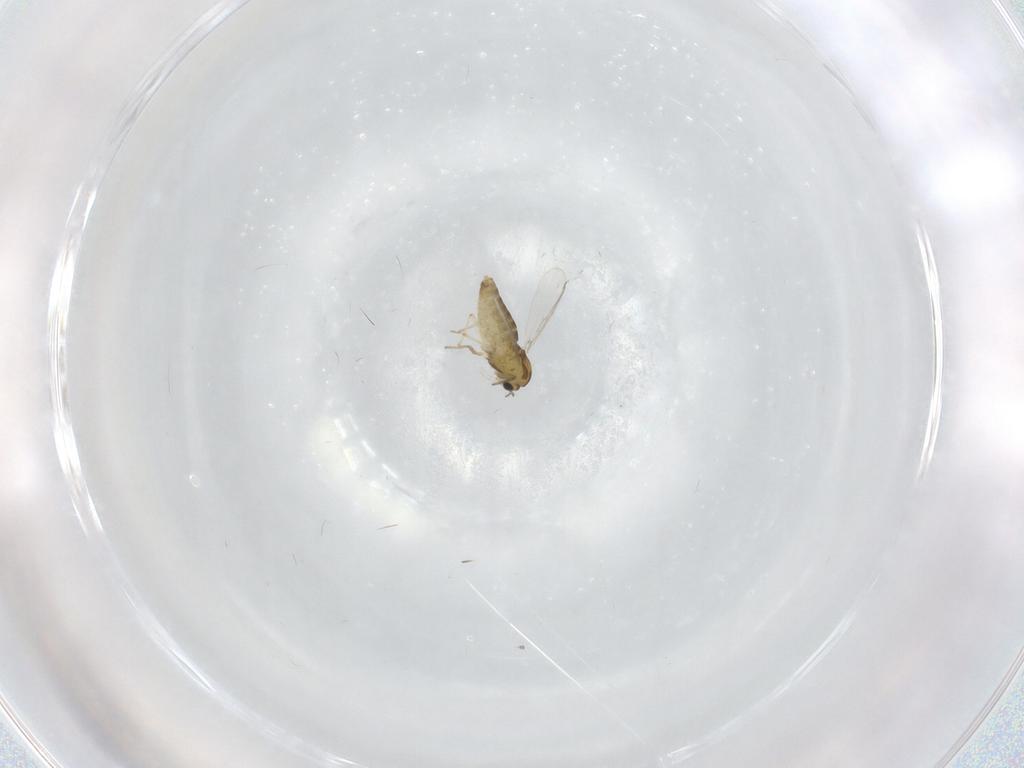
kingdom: Animalia
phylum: Arthropoda
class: Insecta
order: Diptera
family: Chironomidae
